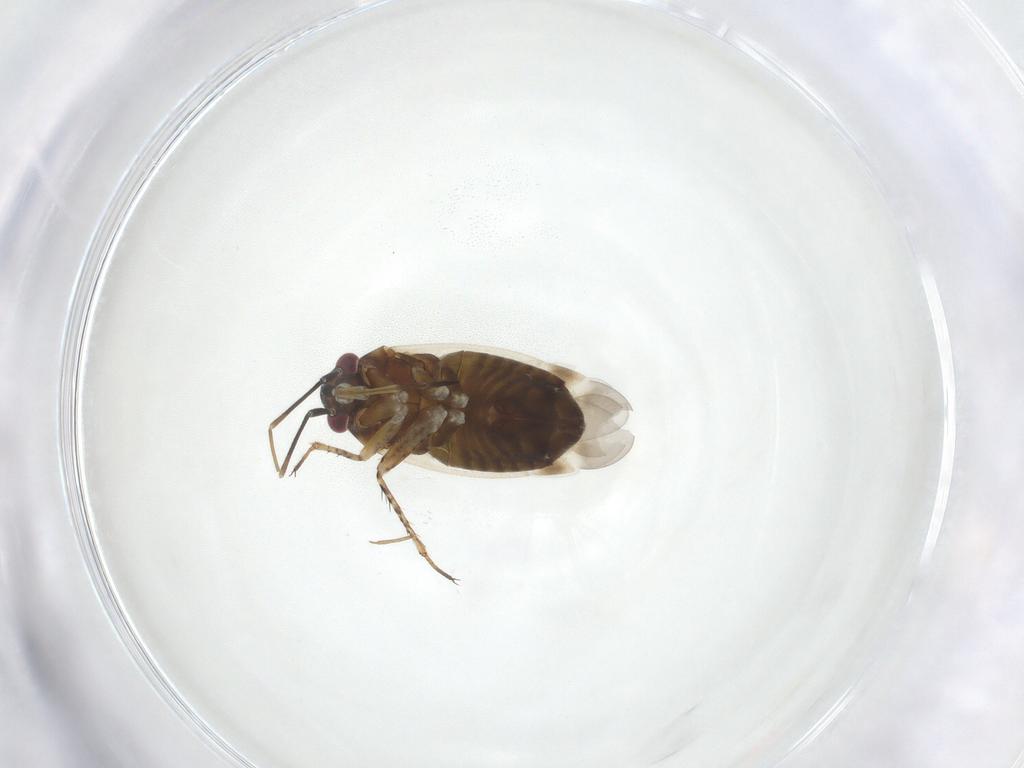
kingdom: Animalia
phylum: Arthropoda
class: Insecta
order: Hemiptera
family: Miridae
